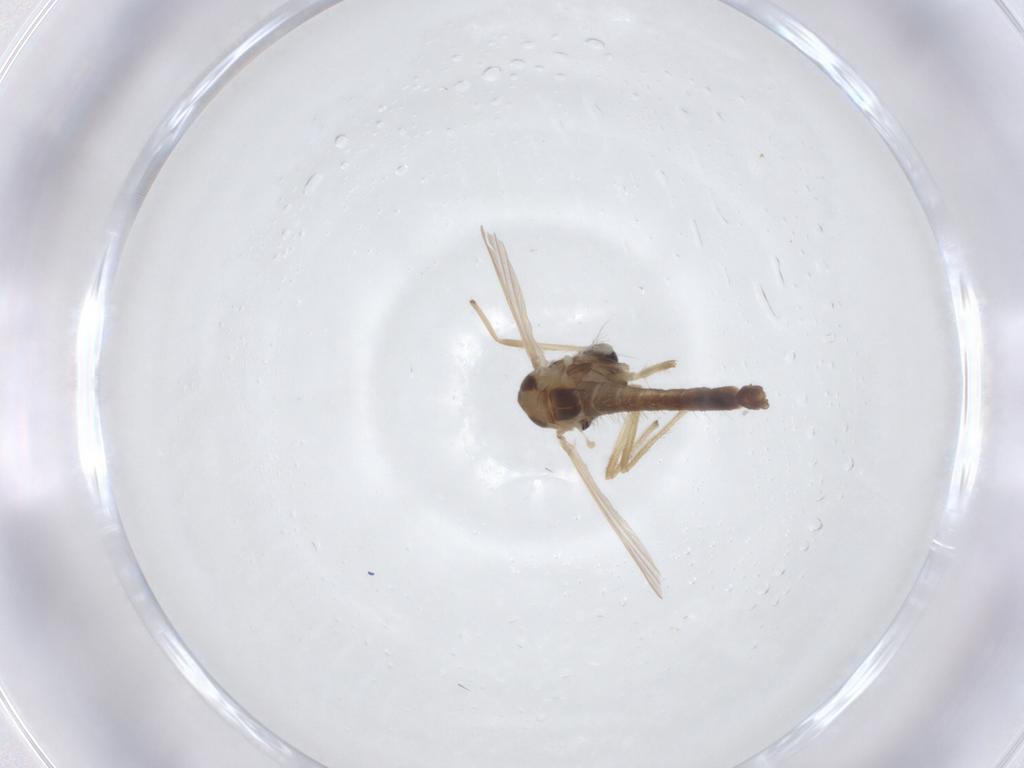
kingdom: Animalia
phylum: Arthropoda
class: Insecta
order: Diptera
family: Chironomidae
